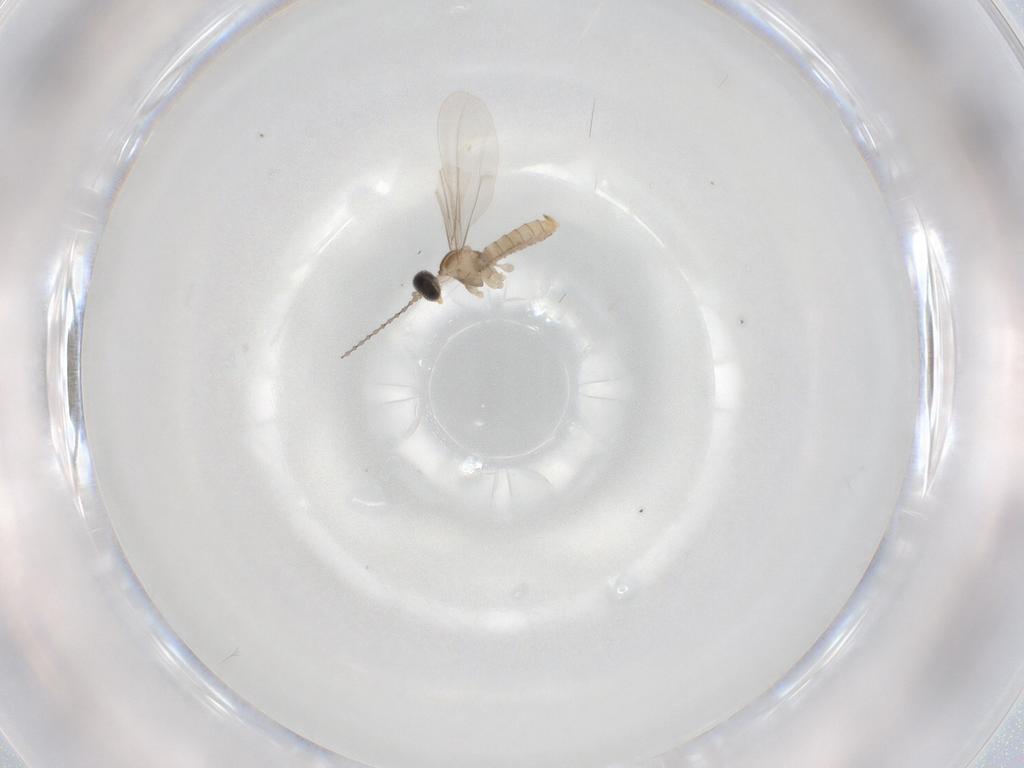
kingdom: Animalia
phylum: Arthropoda
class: Insecta
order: Diptera
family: Cecidomyiidae
